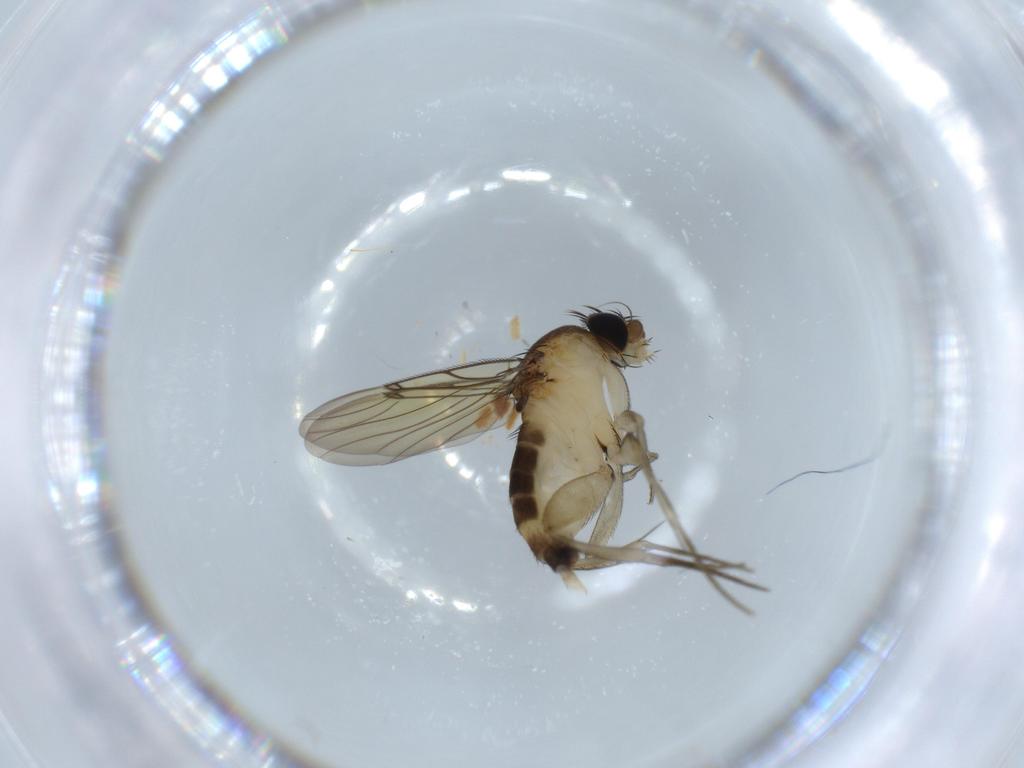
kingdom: Animalia
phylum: Arthropoda
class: Insecta
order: Diptera
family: Phoridae
